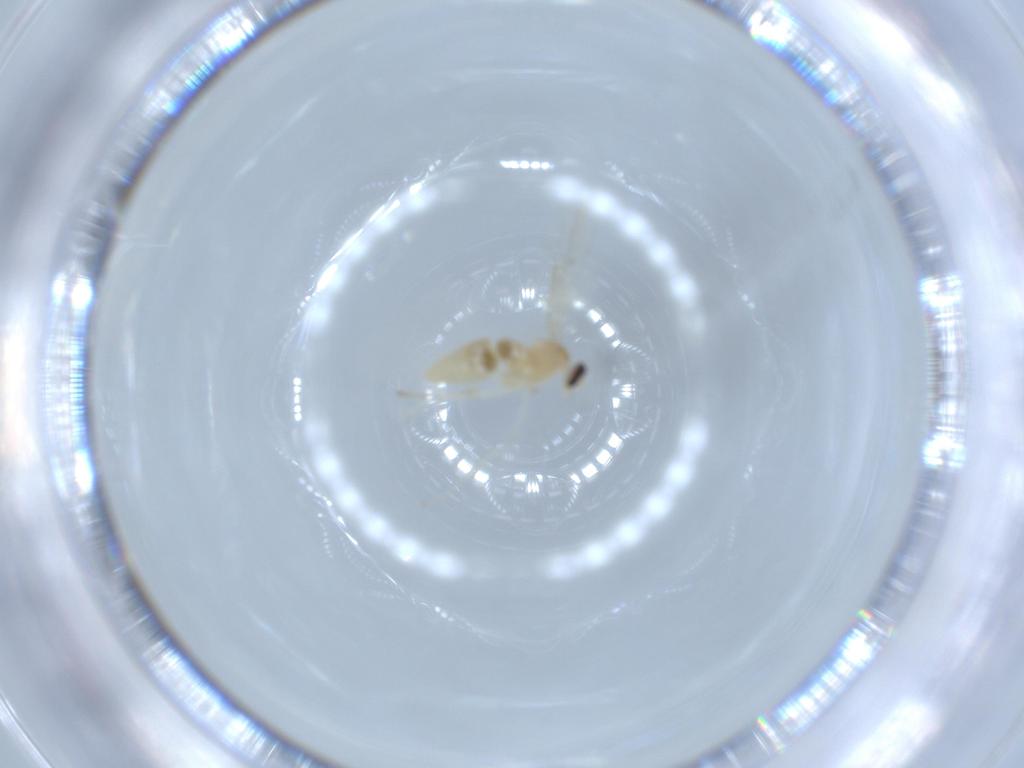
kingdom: Animalia
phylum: Arthropoda
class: Insecta
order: Diptera
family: Cecidomyiidae
